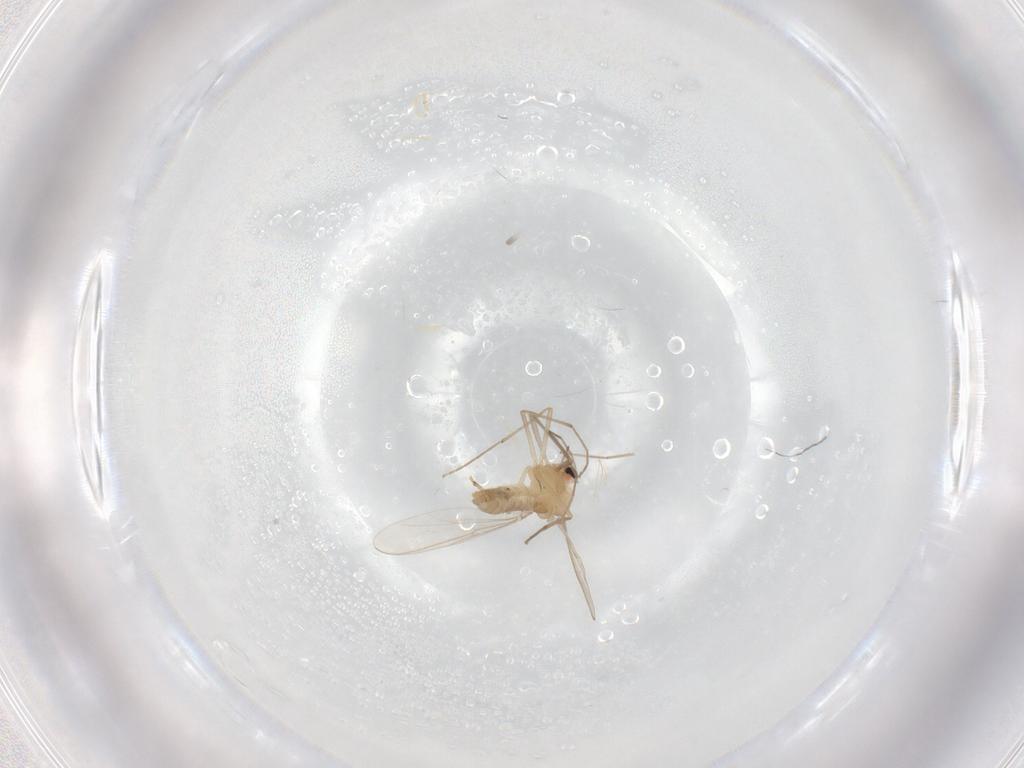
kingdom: Animalia
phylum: Arthropoda
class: Insecta
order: Diptera
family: Chironomidae
